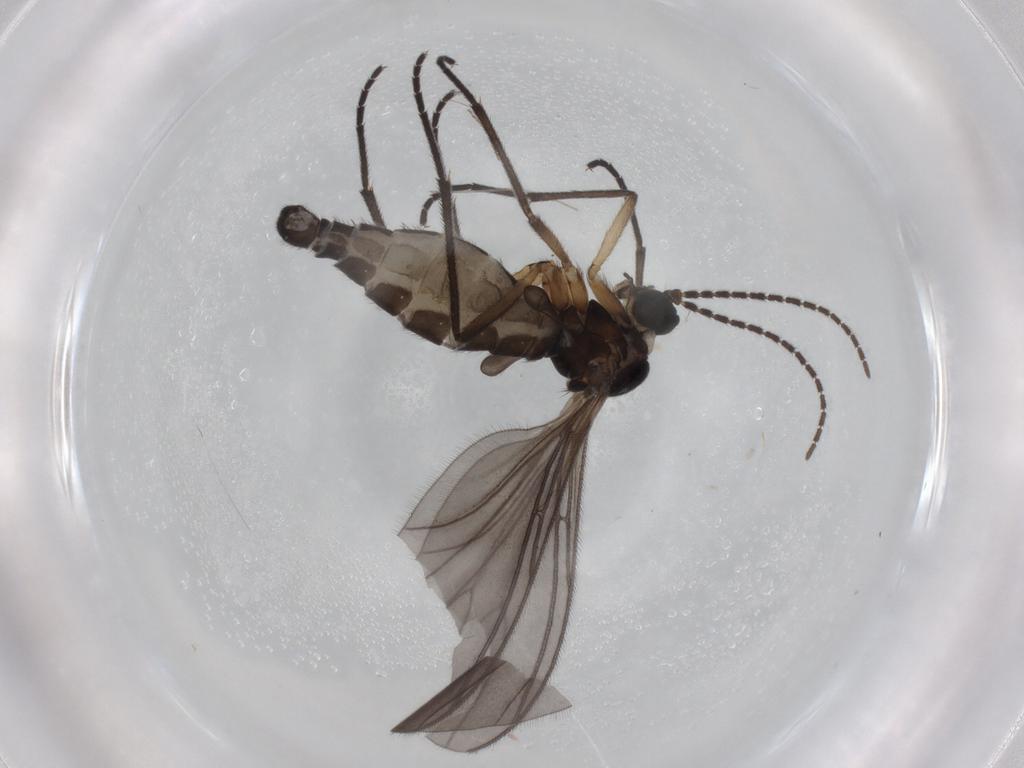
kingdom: Animalia
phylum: Arthropoda
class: Insecta
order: Diptera
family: Sciaridae
